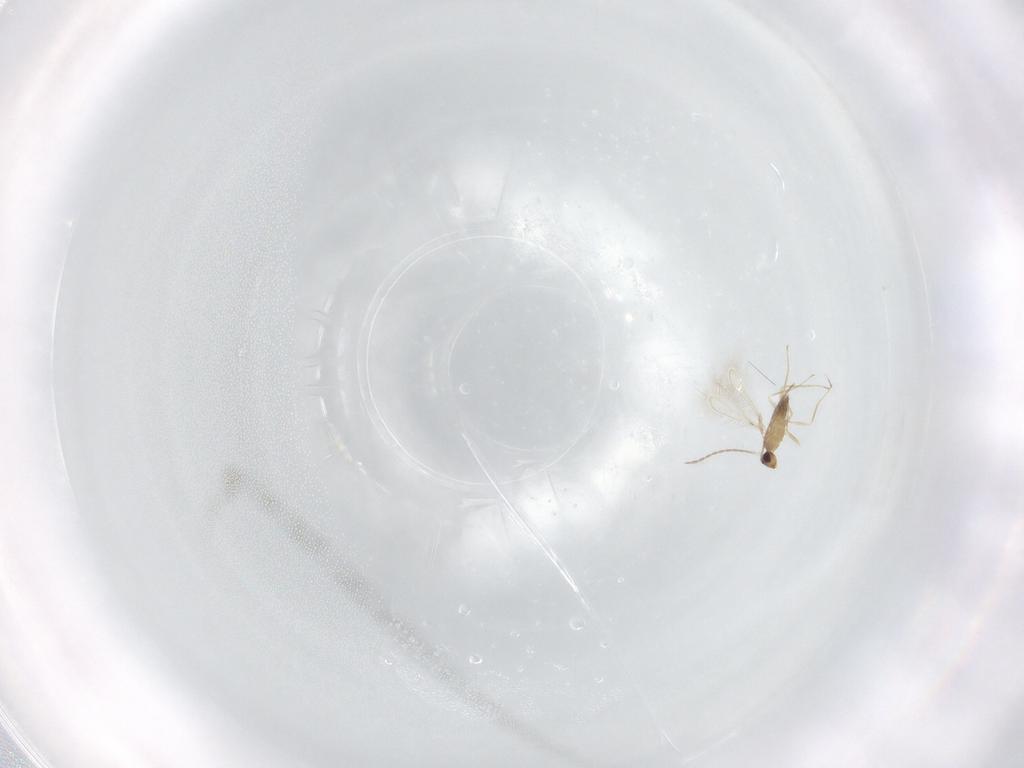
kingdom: Animalia
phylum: Arthropoda
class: Insecta
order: Hymenoptera
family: Mymaridae
